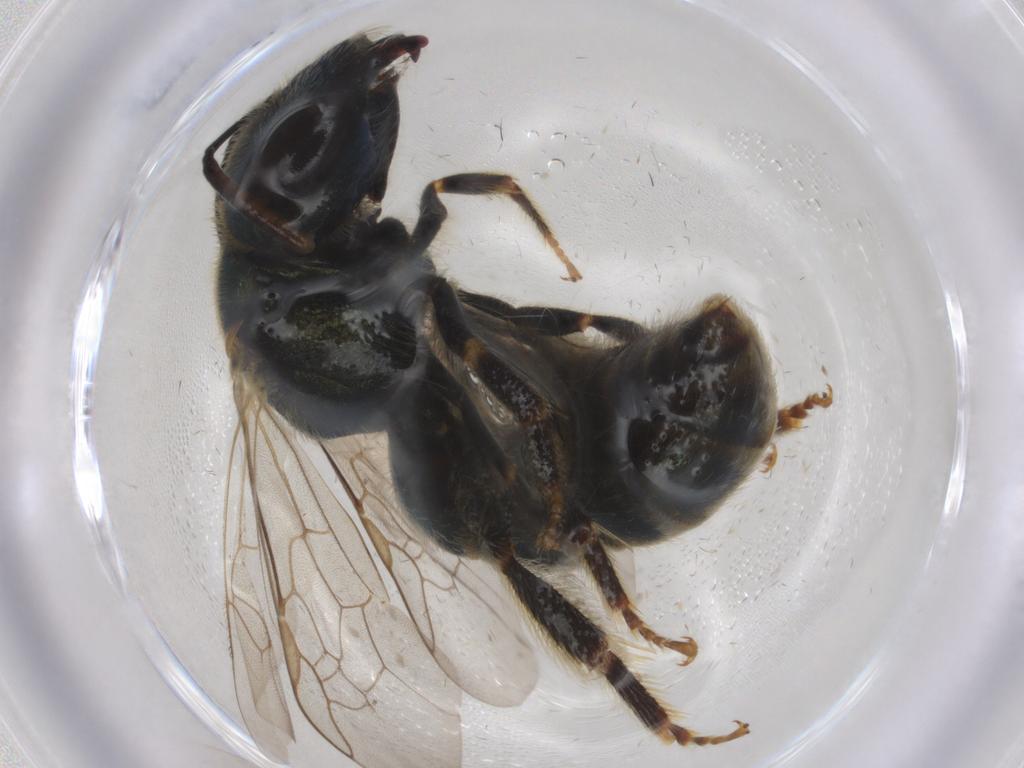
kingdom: Animalia
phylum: Arthropoda
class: Insecta
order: Hymenoptera
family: Halictidae
